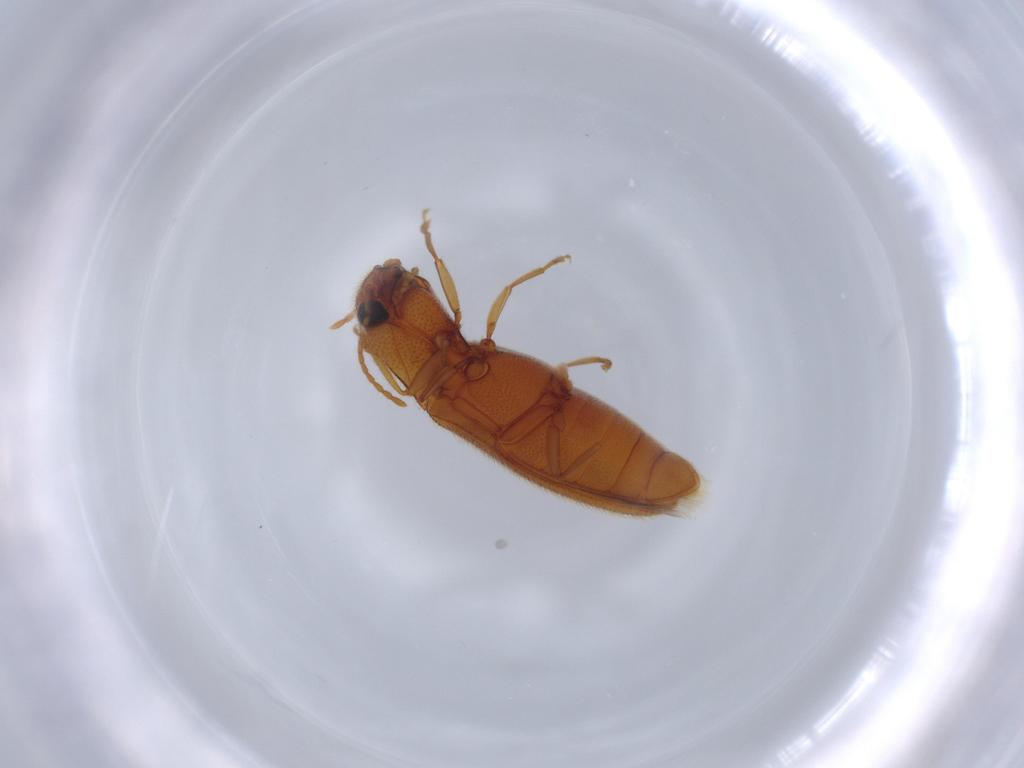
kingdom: Animalia
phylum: Arthropoda
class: Insecta
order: Coleoptera
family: Elateridae
